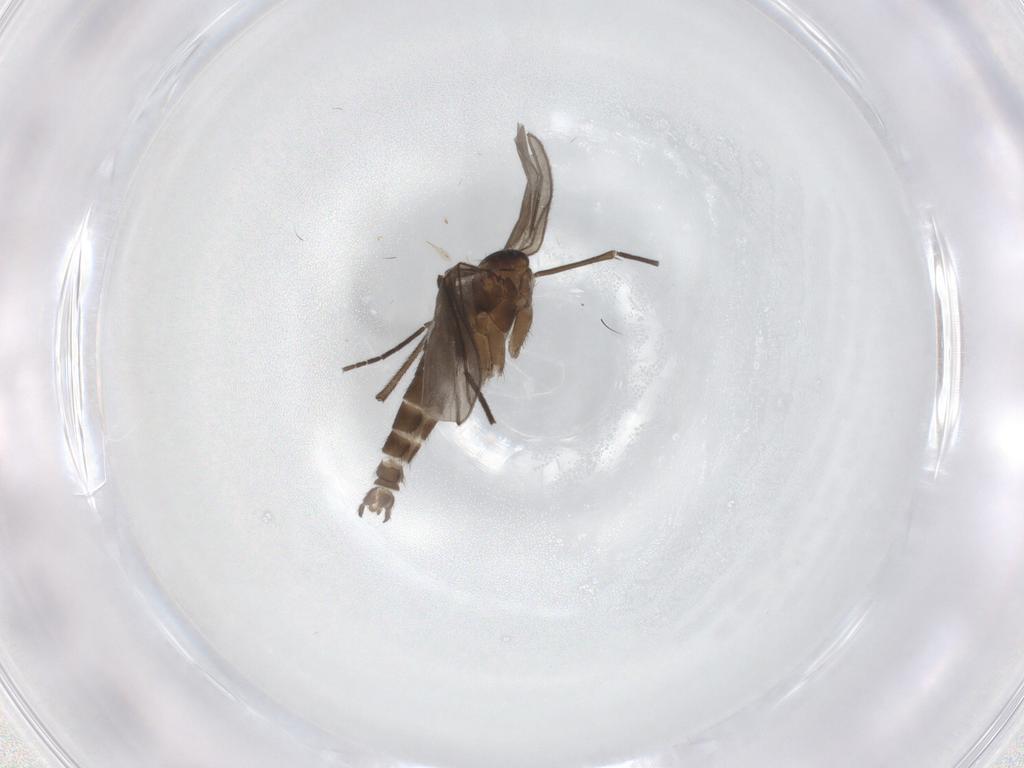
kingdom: Animalia
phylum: Arthropoda
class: Insecta
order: Diptera
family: Sciaridae
